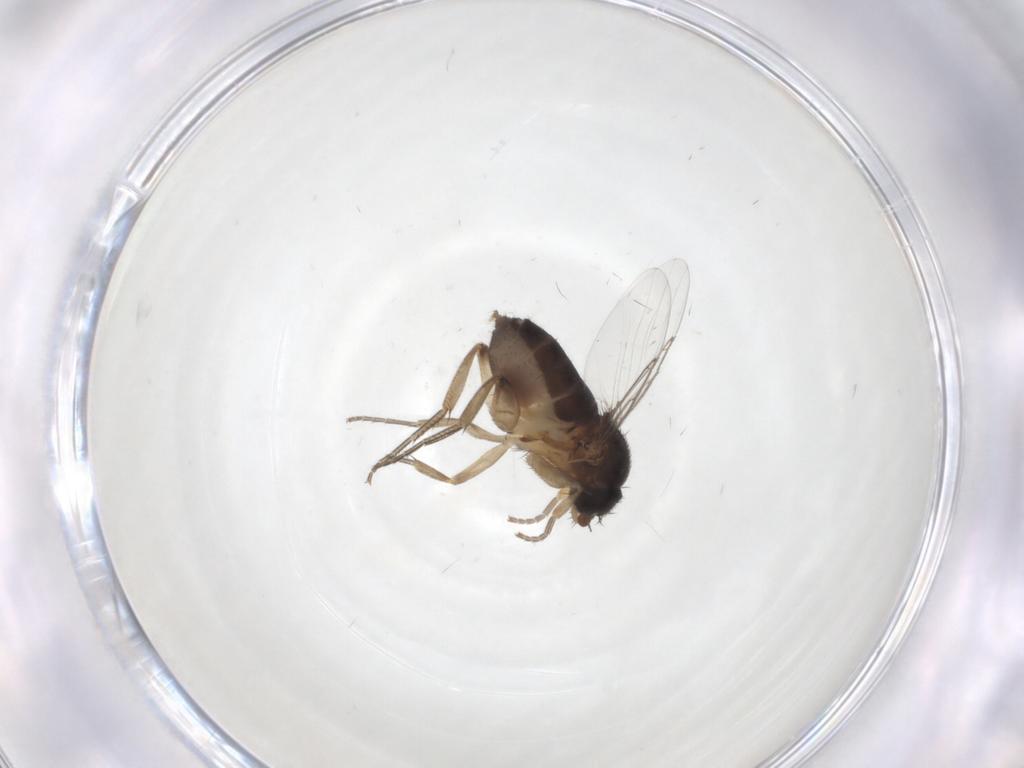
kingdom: Animalia
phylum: Arthropoda
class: Insecta
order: Diptera
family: Phoridae
